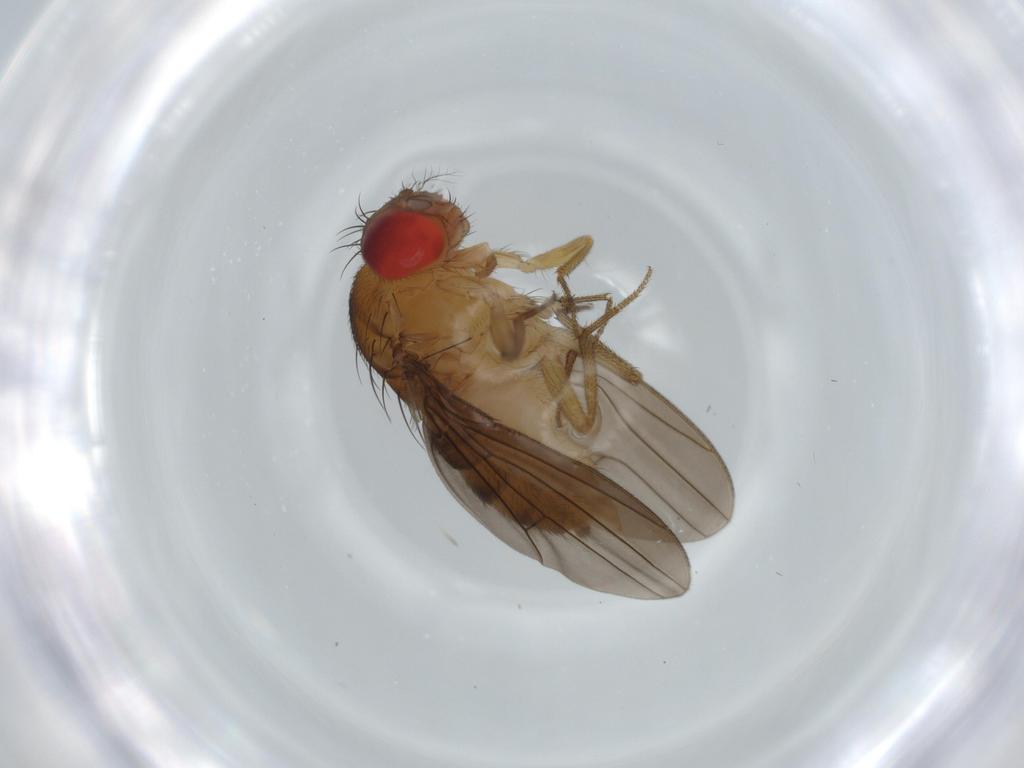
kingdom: Animalia
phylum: Arthropoda
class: Insecta
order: Diptera
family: Drosophilidae
